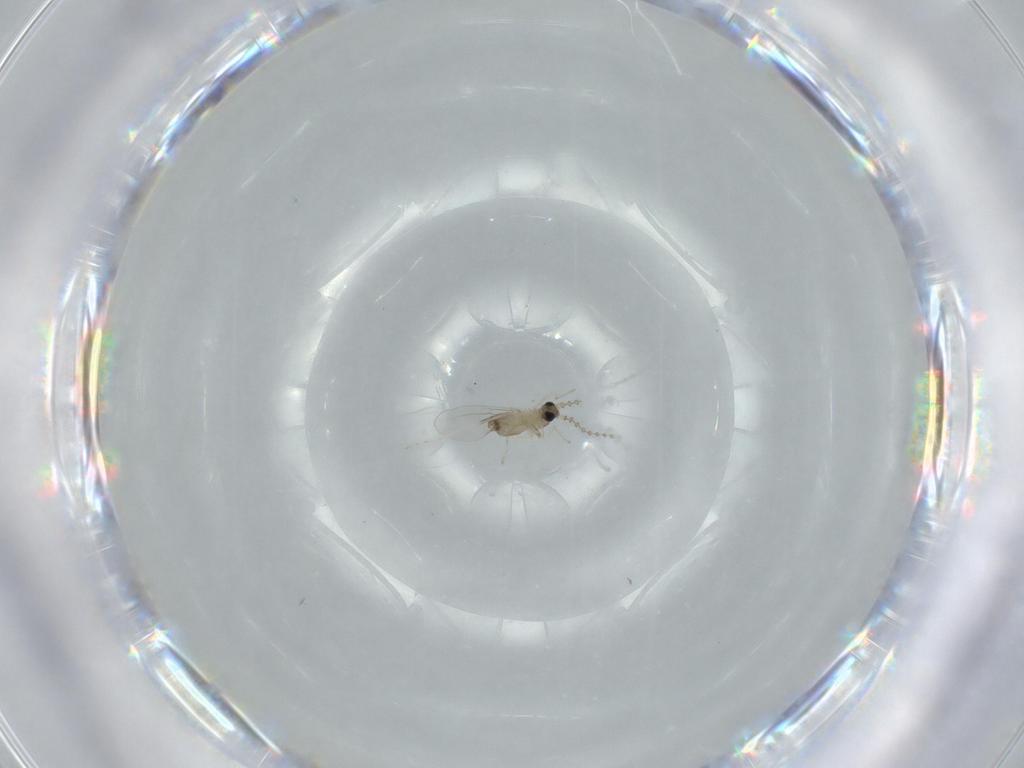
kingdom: Animalia
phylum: Arthropoda
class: Insecta
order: Diptera
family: Cecidomyiidae
